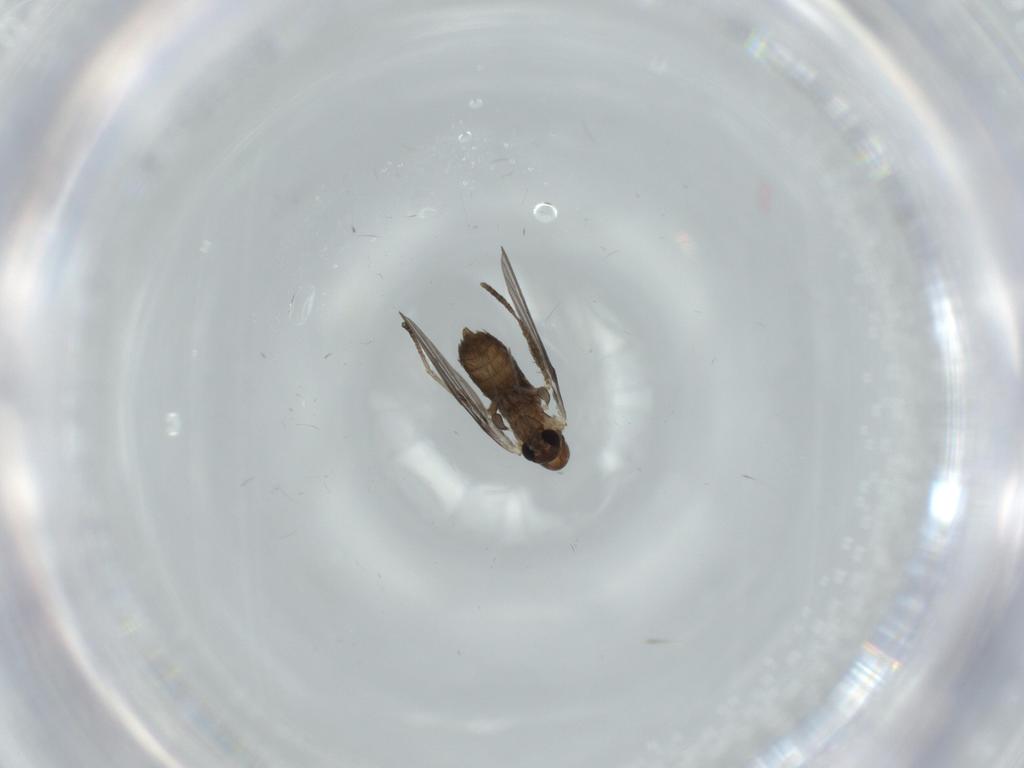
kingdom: Animalia
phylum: Arthropoda
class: Insecta
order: Diptera
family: Psychodidae
